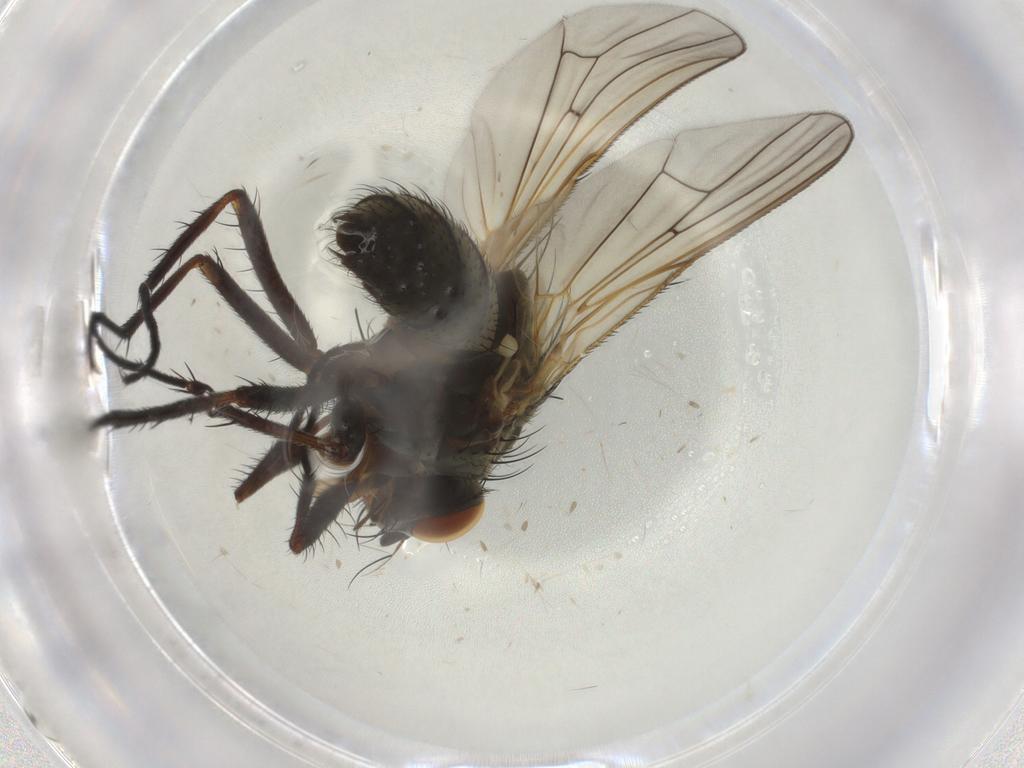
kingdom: Animalia
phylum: Arthropoda
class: Insecta
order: Diptera
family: Anthomyiidae
